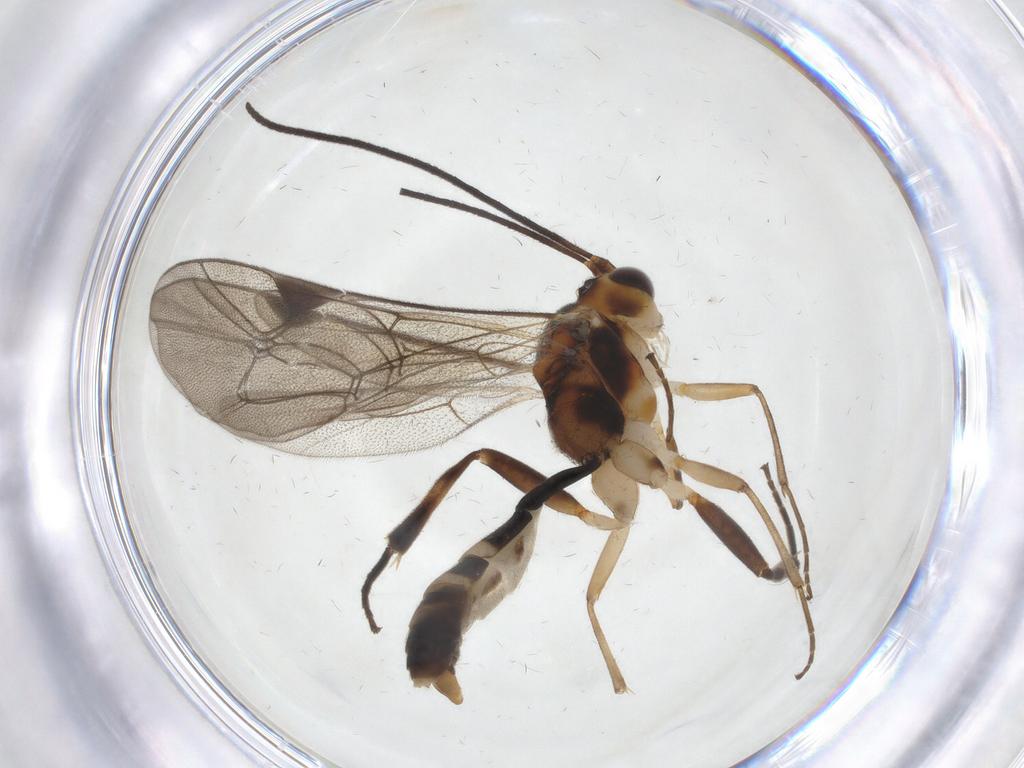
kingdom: Animalia
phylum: Arthropoda
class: Insecta
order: Hymenoptera
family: Ichneumonidae
